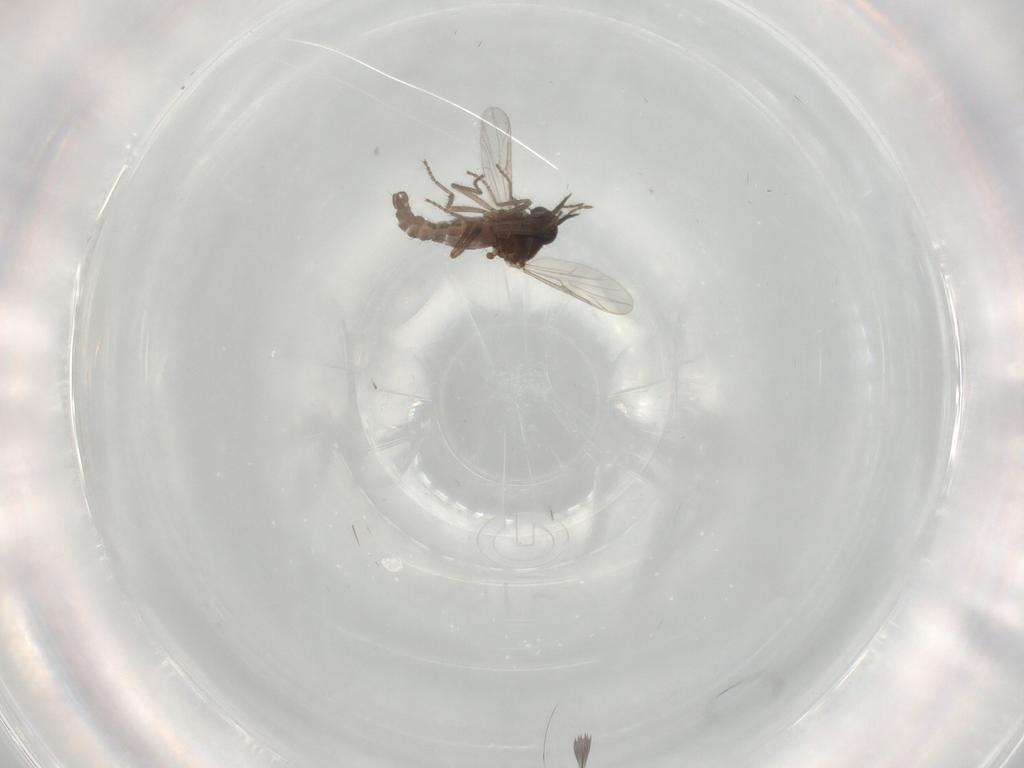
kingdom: Animalia
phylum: Arthropoda
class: Insecta
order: Diptera
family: Ceratopogonidae
